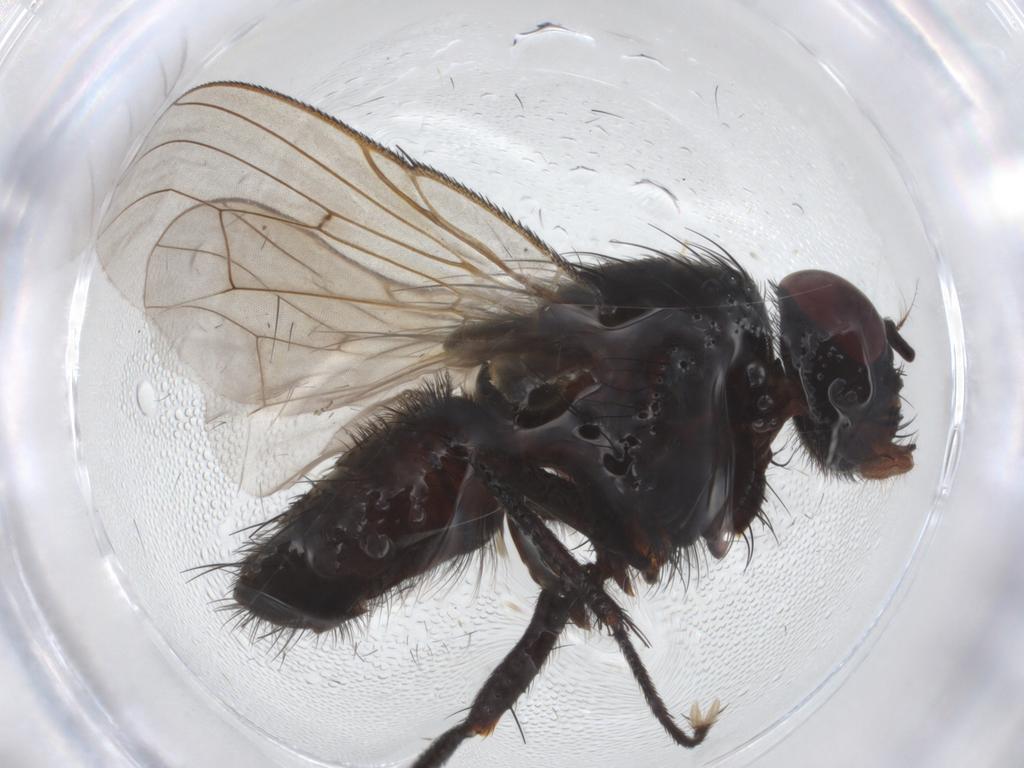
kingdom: Animalia
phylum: Arthropoda
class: Insecta
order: Diptera
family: Muscidae
